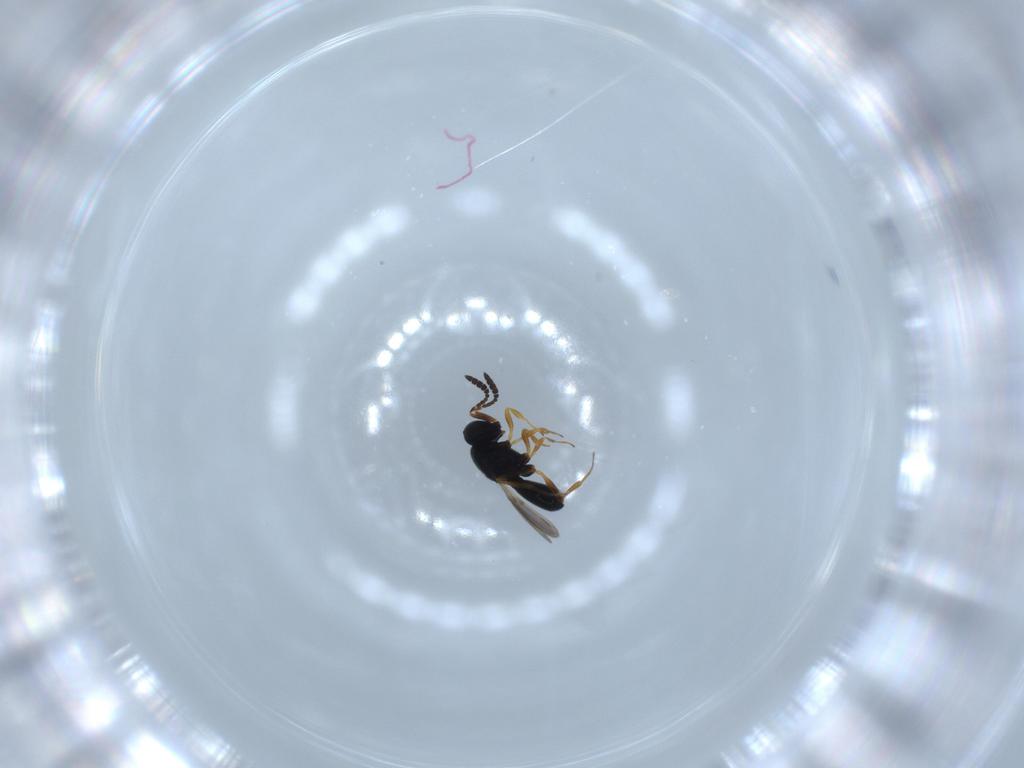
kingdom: Animalia
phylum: Arthropoda
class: Insecta
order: Hymenoptera
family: Scelionidae
